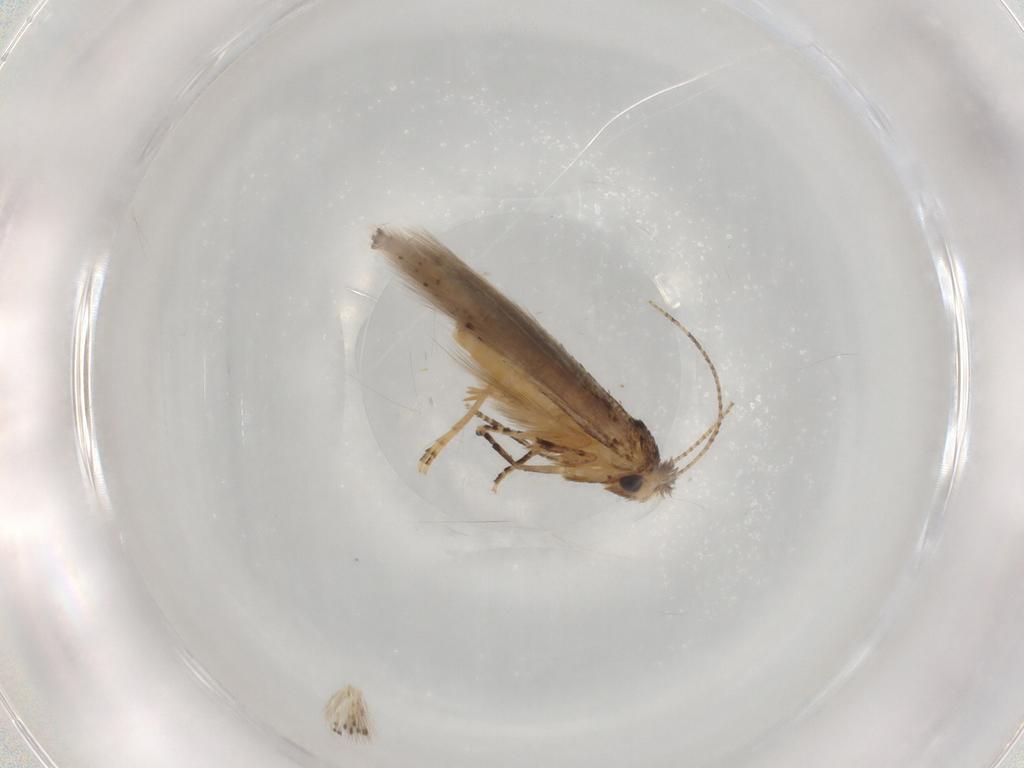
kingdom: Animalia
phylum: Arthropoda
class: Insecta
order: Lepidoptera
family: Bucculatricidae
